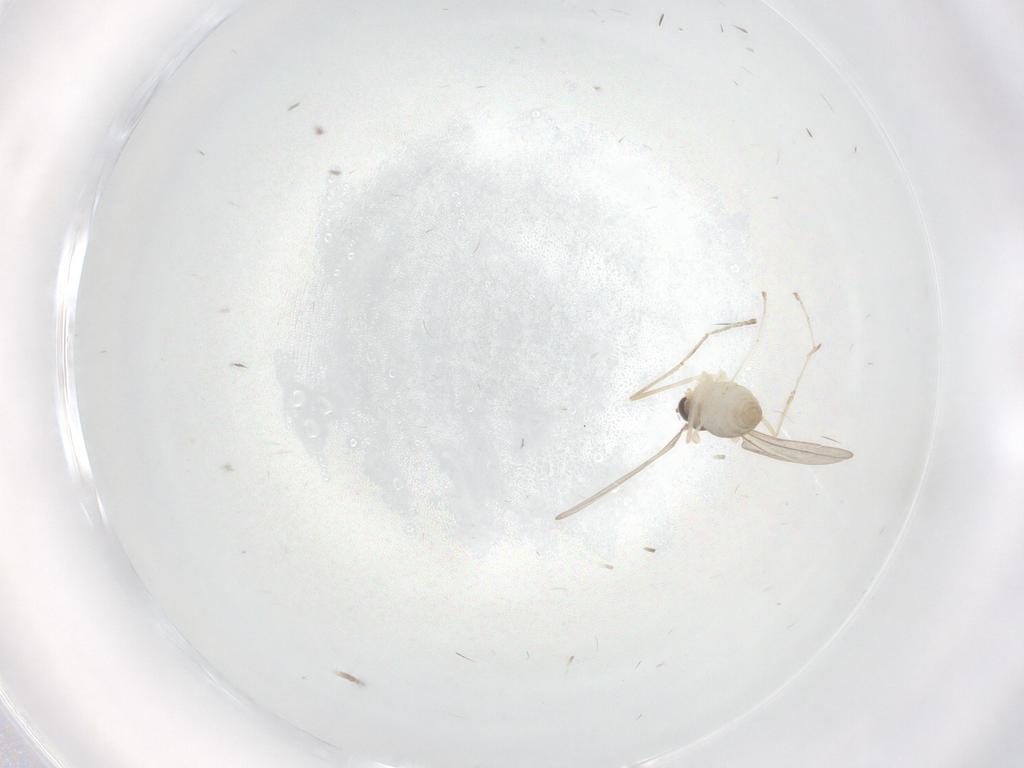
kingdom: Animalia
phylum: Arthropoda
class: Insecta
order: Diptera
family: Cecidomyiidae
